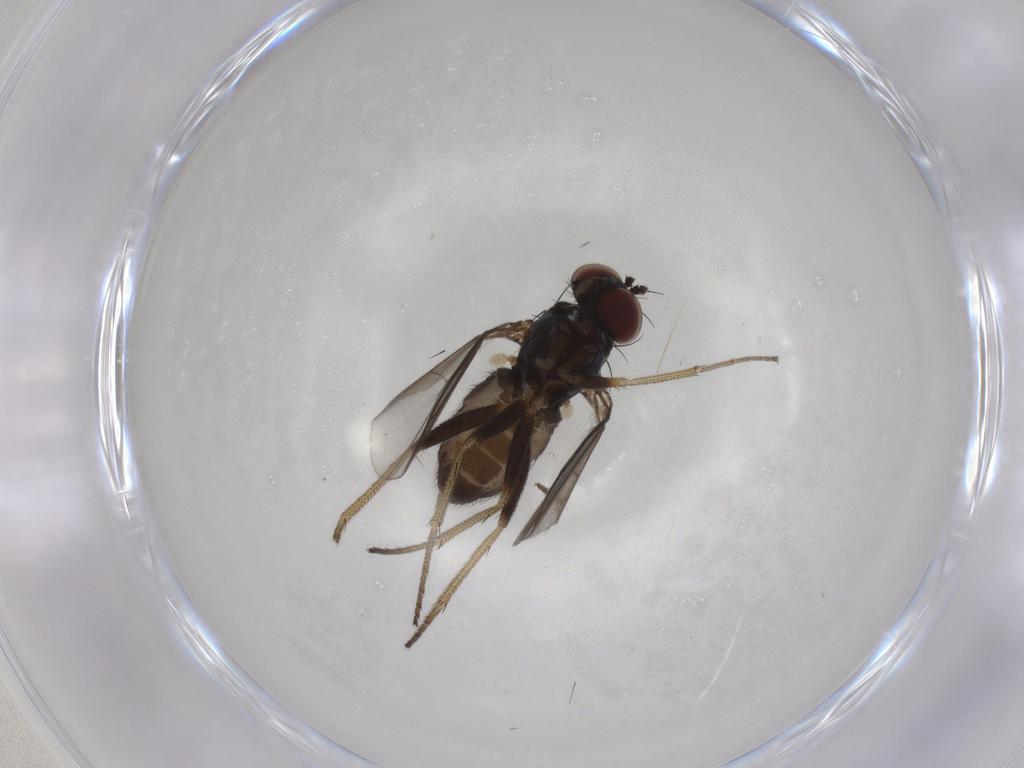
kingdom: Animalia
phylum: Arthropoda
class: Insecta
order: Diptera
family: Dolichopodidae
